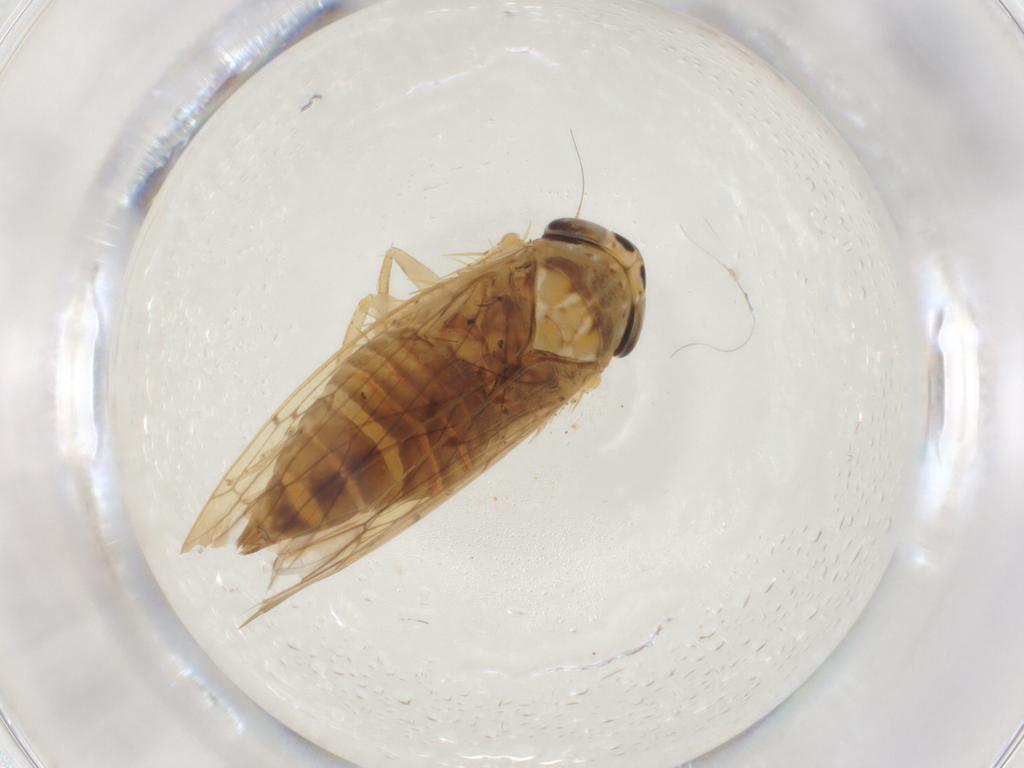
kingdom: Animalia
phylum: Arthropoda
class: Insecta
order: Hemiptera
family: Cicadellidae
